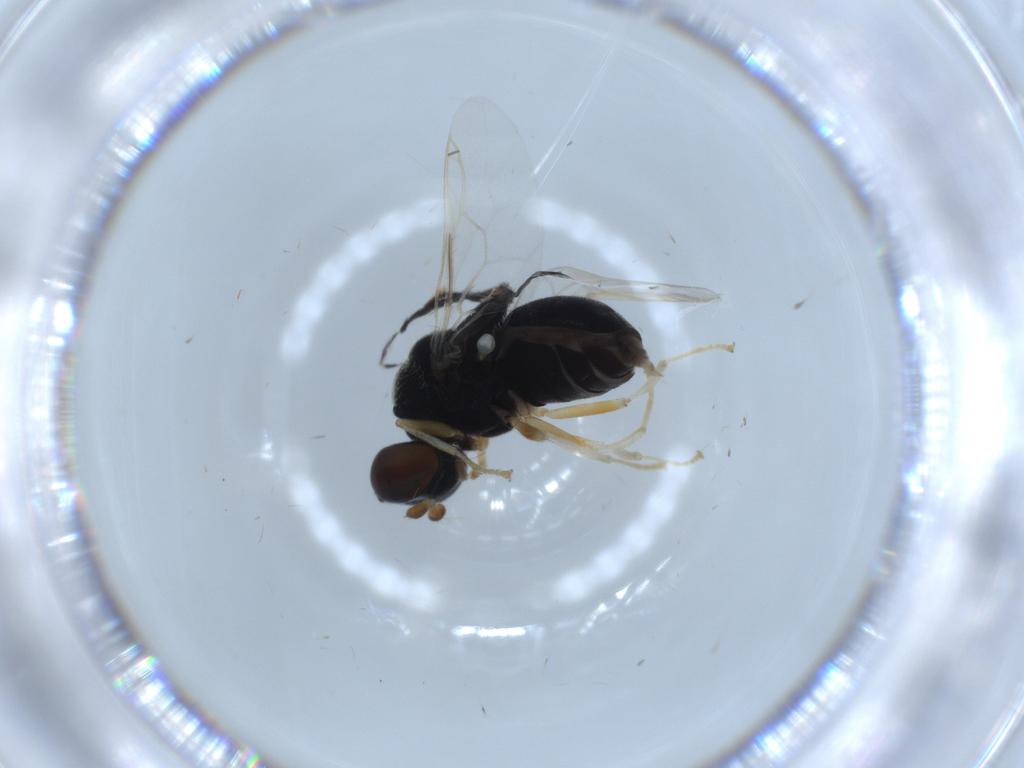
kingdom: Animalia
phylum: Arthropoda
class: Insecta
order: Diptera
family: Stratiomyidae
